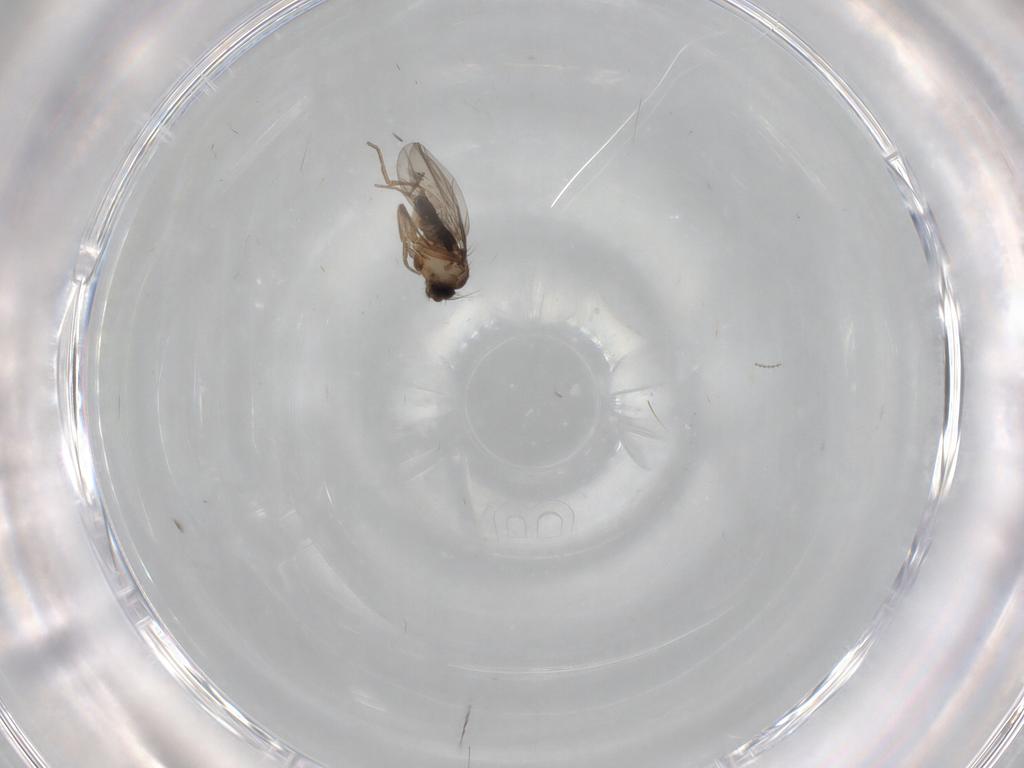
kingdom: Animalia
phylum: Arthropoda
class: Insecta
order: Diptera
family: Phoridae
